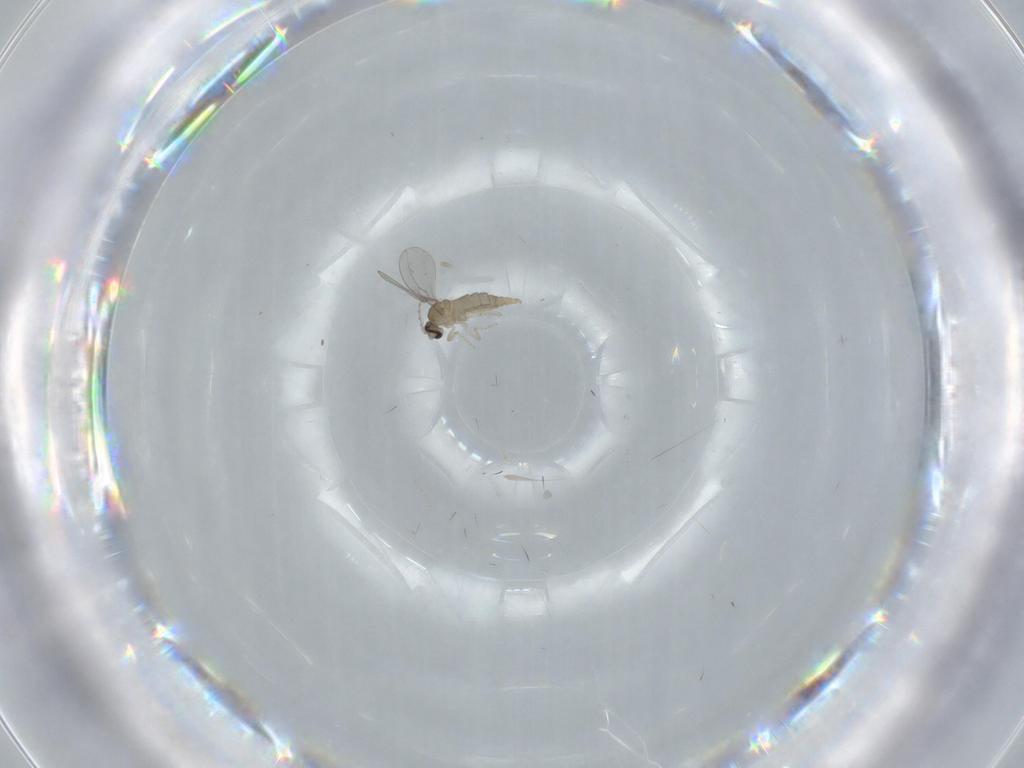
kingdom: Animalia
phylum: Arthropoda
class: Insecta
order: Diptera
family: Cecidomyiidae
